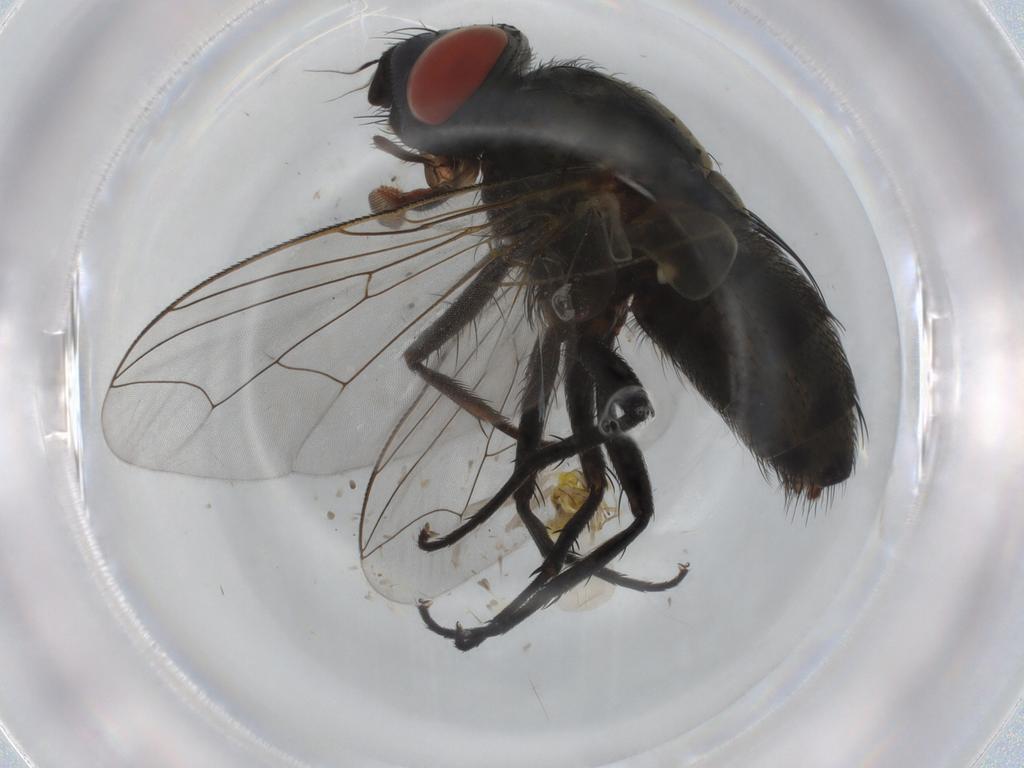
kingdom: Animalia
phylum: Arthropoda
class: Insecta
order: Diptera
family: Sarcophagidae
